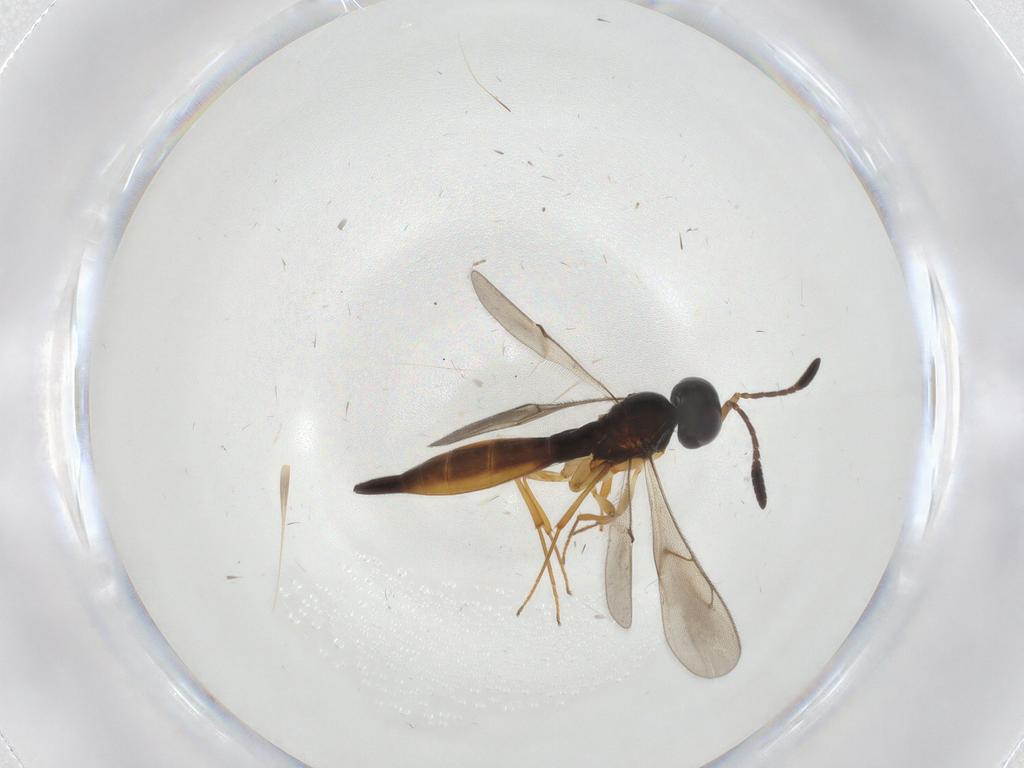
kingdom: Animalia
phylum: Arthropoda
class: Insecta
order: Hymenoptera
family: Scelionidae
